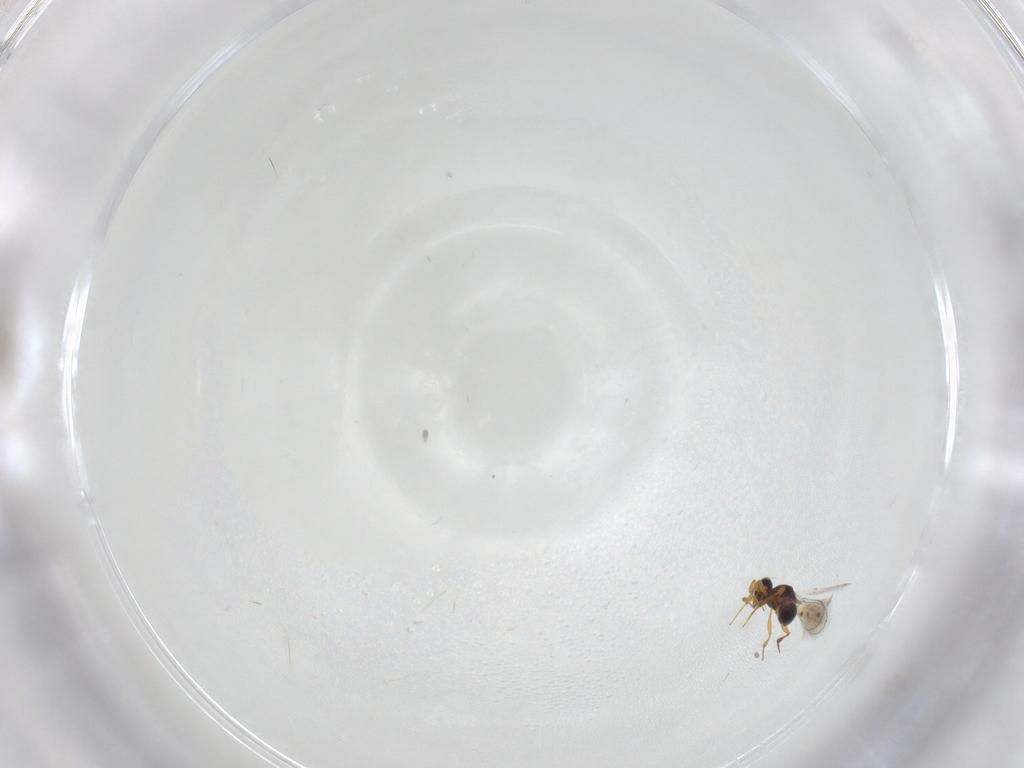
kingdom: Animalia
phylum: Arthropoda
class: Insecta
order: Hymenoptera
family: Platygastridae
